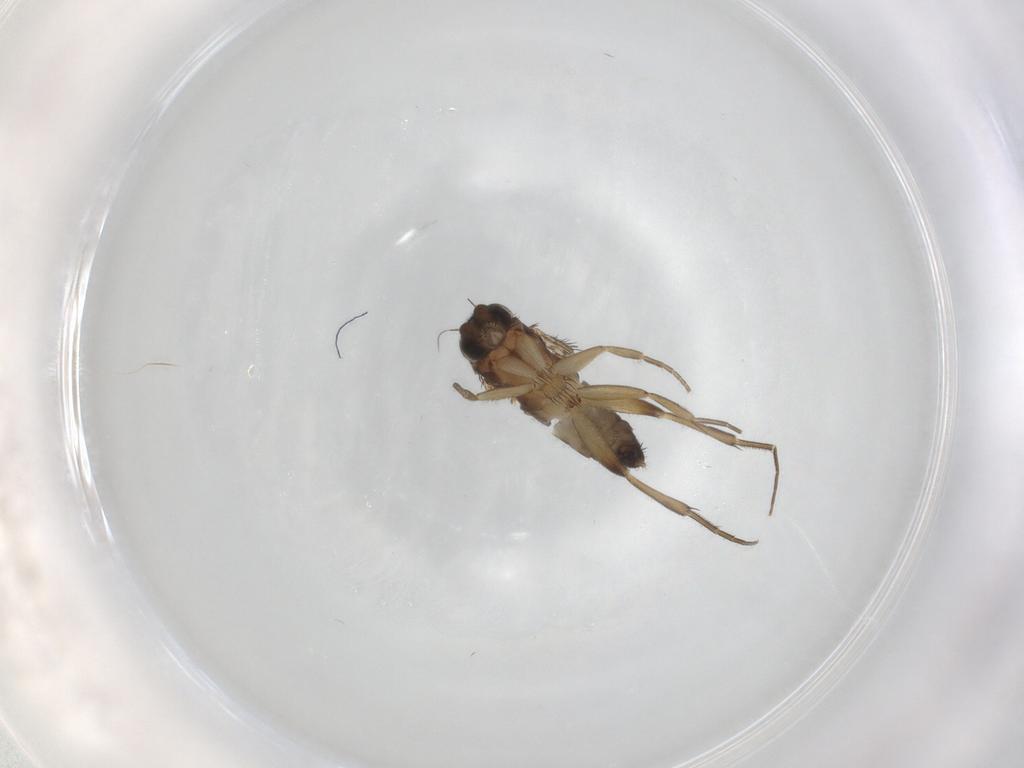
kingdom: Animalia
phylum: Arthropoda
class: Insecta
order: Diptera
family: Phoridae
